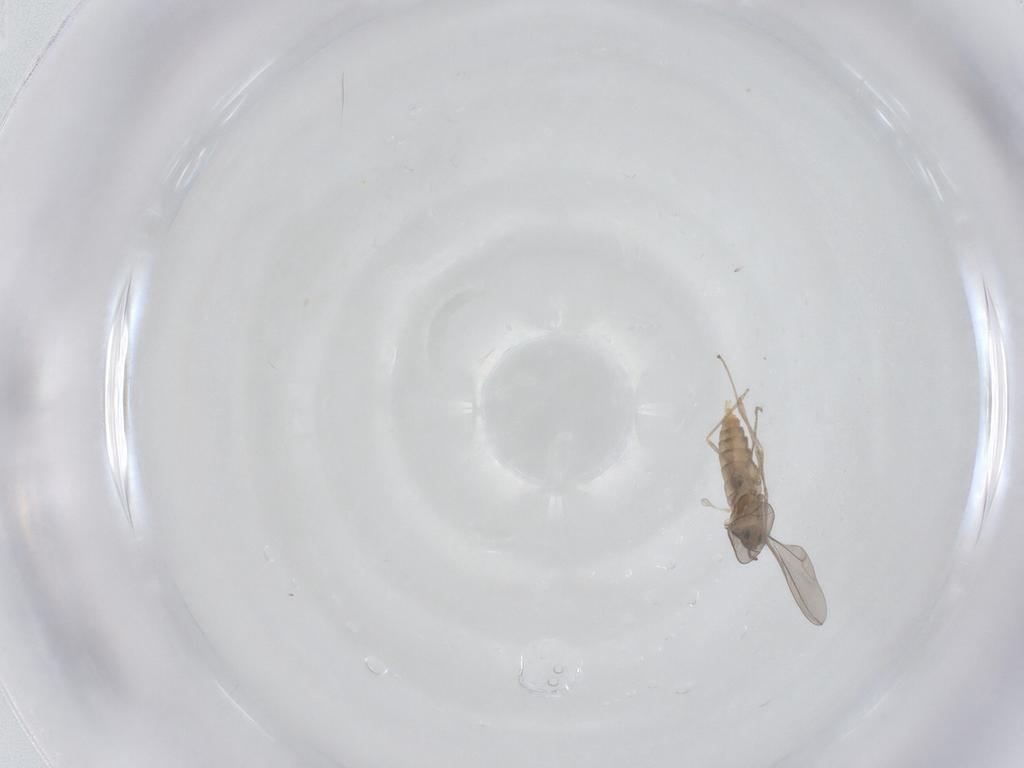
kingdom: Animalia
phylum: Arthropoda
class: Insecta
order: Diptera
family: Cecidomyiidae
